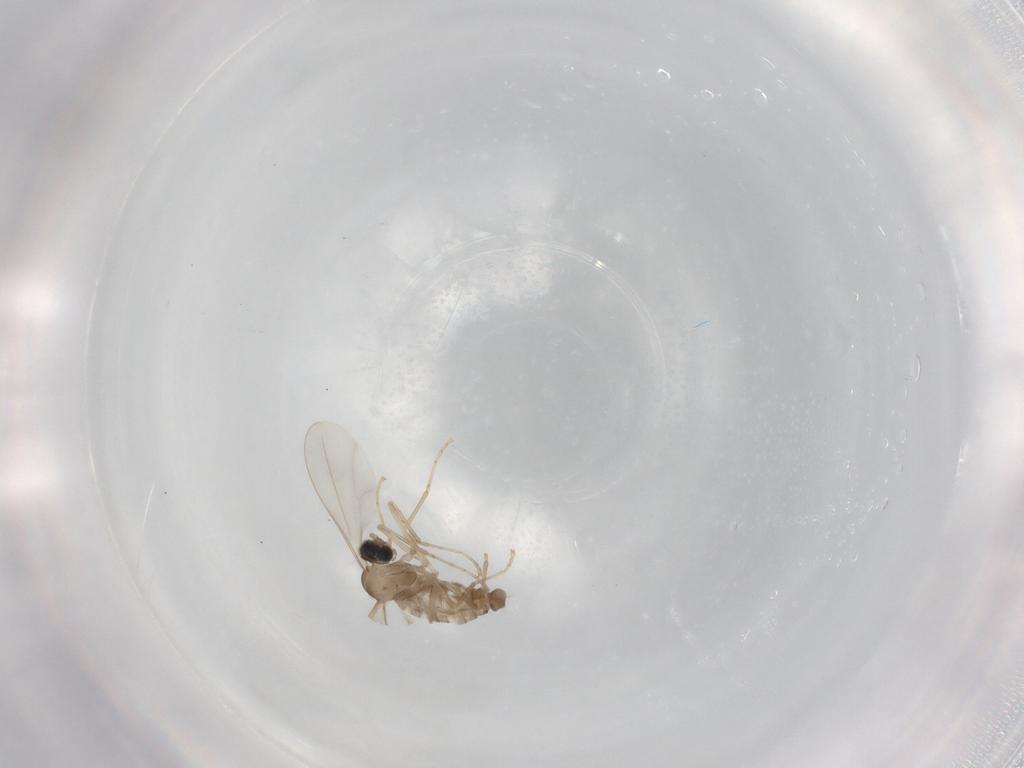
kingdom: Animalia
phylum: Arthropoda
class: Insecta
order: Diptera
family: Cecidomyiidae
